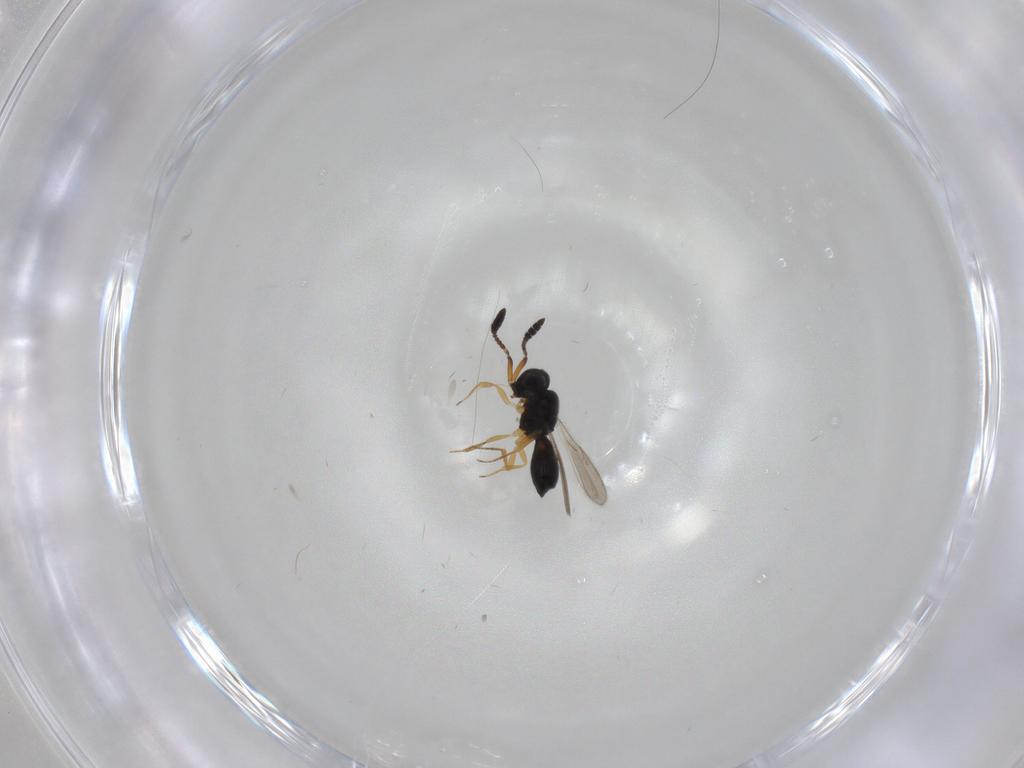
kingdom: Animalia
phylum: Arthropoda
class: Insecta
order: Hymenoptera
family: Scelionidae
